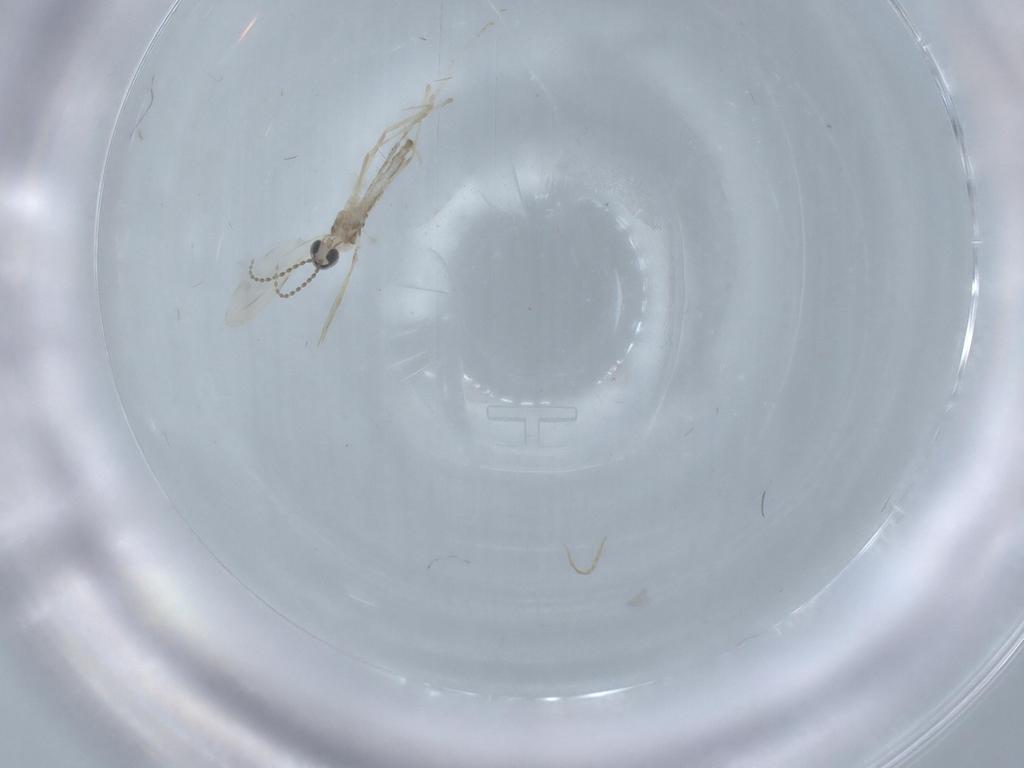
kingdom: Animalia
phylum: Arthropoda
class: Insecta
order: Diptera
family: Cecidomyiidae
